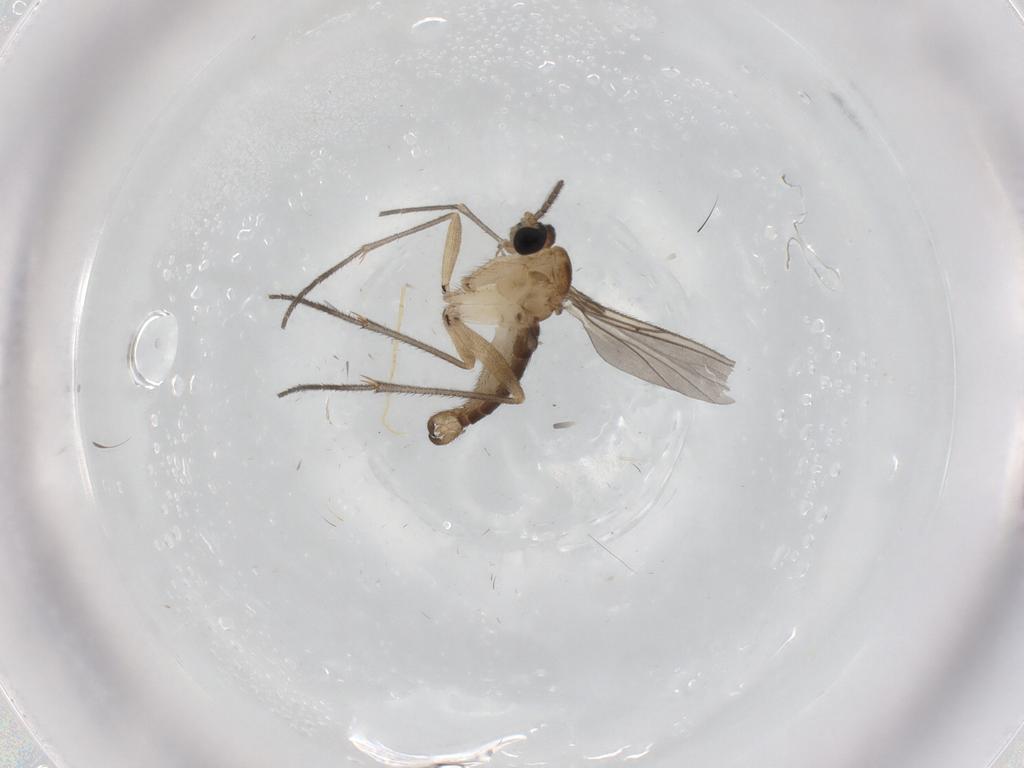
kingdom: Animalia
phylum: Arthropoda
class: Insecta
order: Diptera
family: Sciaridae
